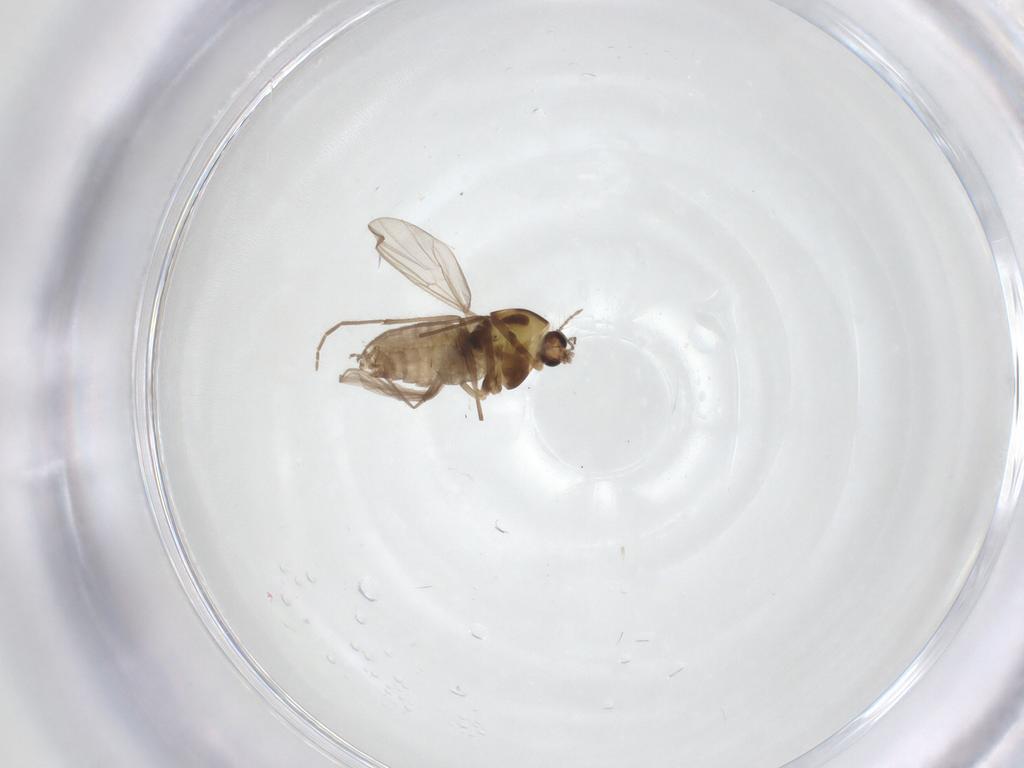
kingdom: Animalia
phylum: Arthropoda
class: Insecta
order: Diptera
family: Chironomidae
